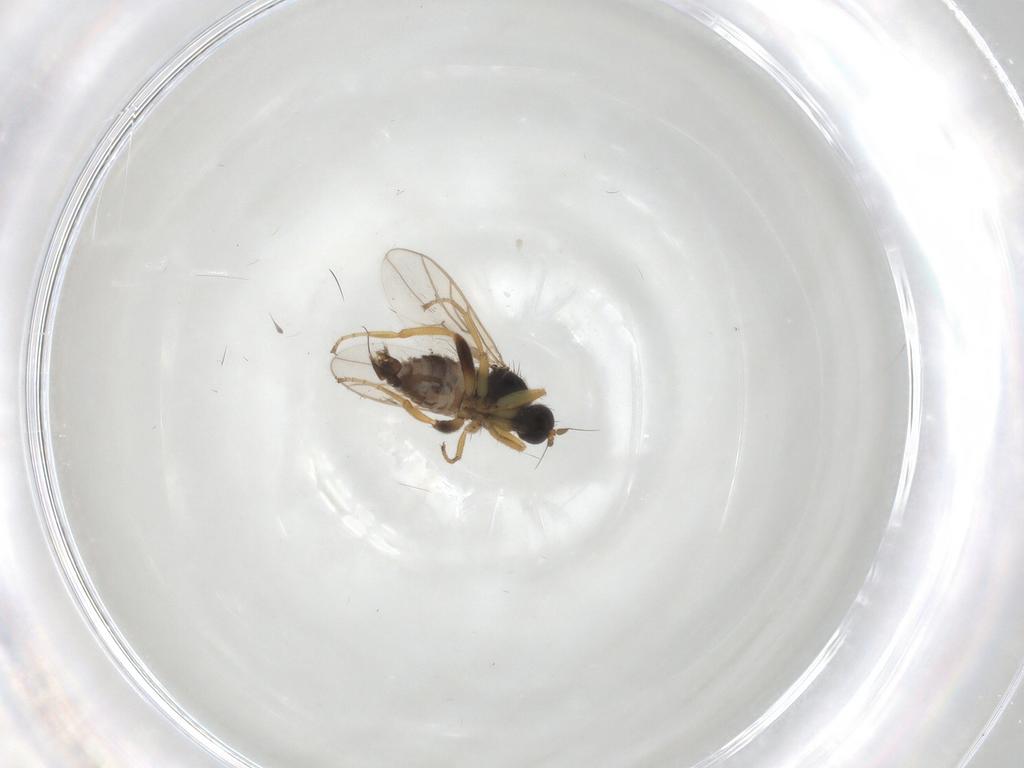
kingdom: Animalia
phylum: Arthropoda
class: Insecta
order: Diptera
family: Hybotidae
